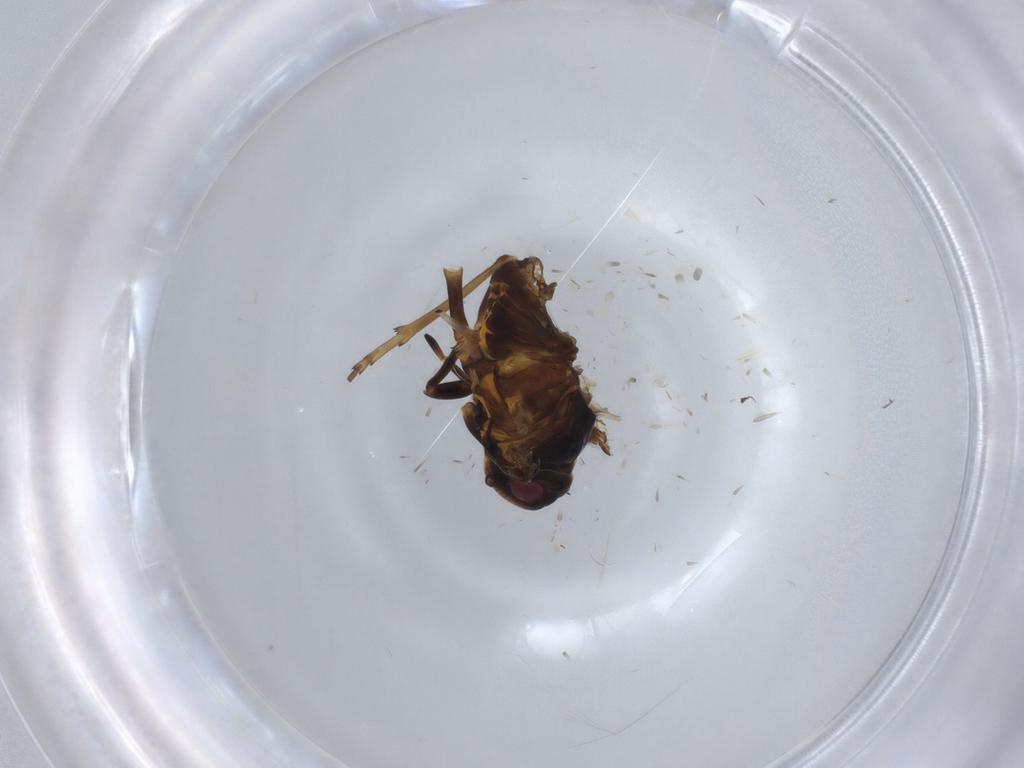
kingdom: Animalia
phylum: Arthropoda
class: Insecta
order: Hemiptera
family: Meenoplidae
